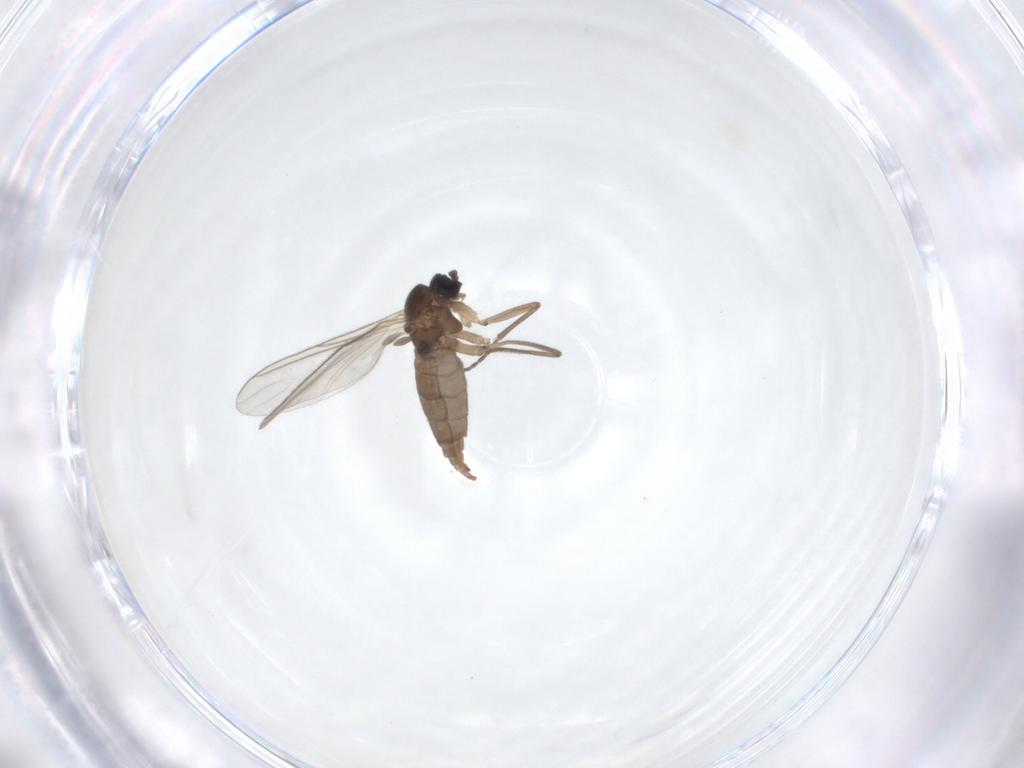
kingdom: Animalia
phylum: Arthropoda
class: Insecta
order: Diptera
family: Sciaridae
